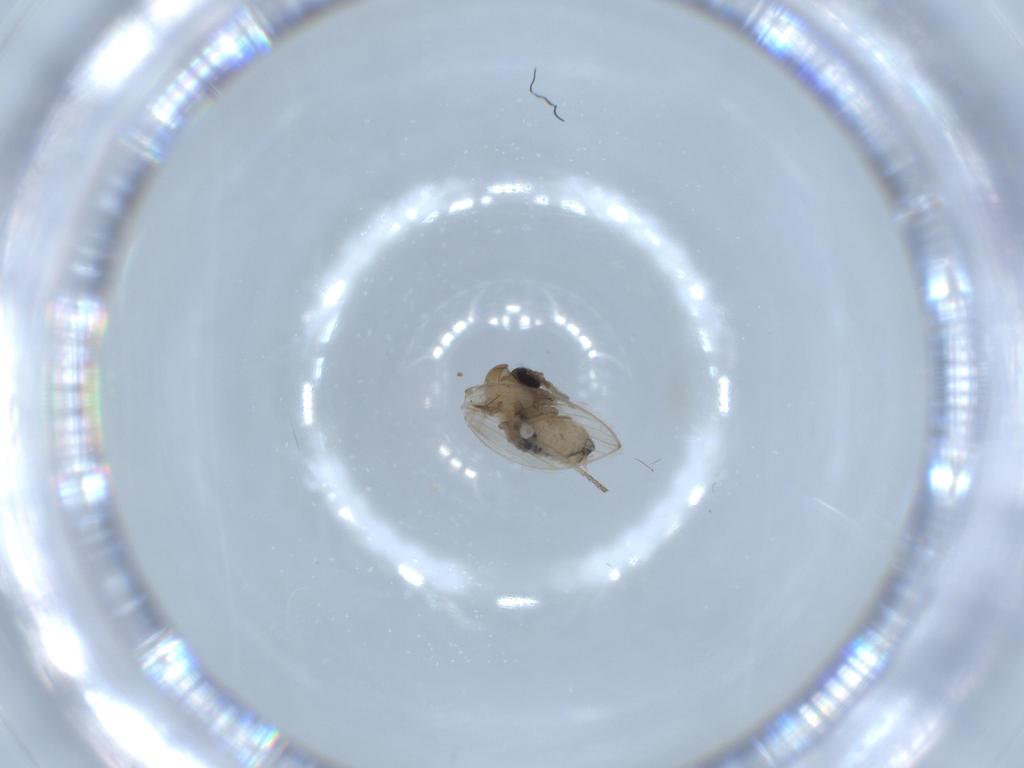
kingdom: Animalia
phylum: Arthropoda
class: Insecta
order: Diptera
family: Psychodidae
